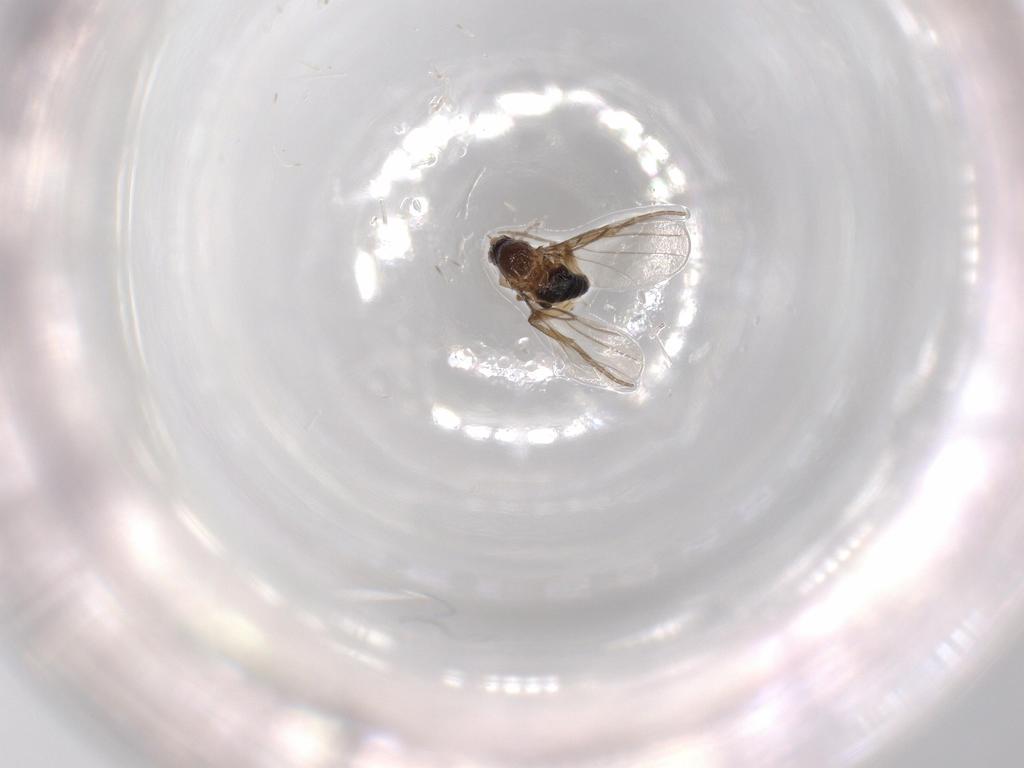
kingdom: Animalia
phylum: Arthropoda
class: Insecta
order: Diptera
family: Phoridae
